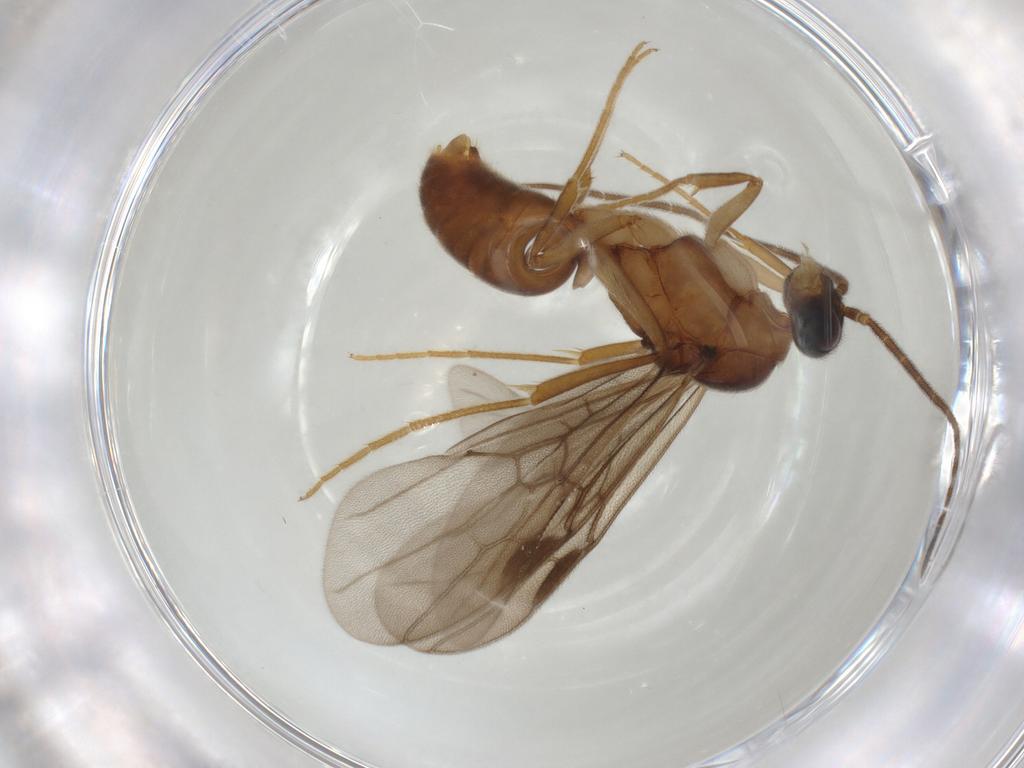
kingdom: Animalia
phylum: Arthropoda
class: Insecta
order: Hymenoptera
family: Formicidae
